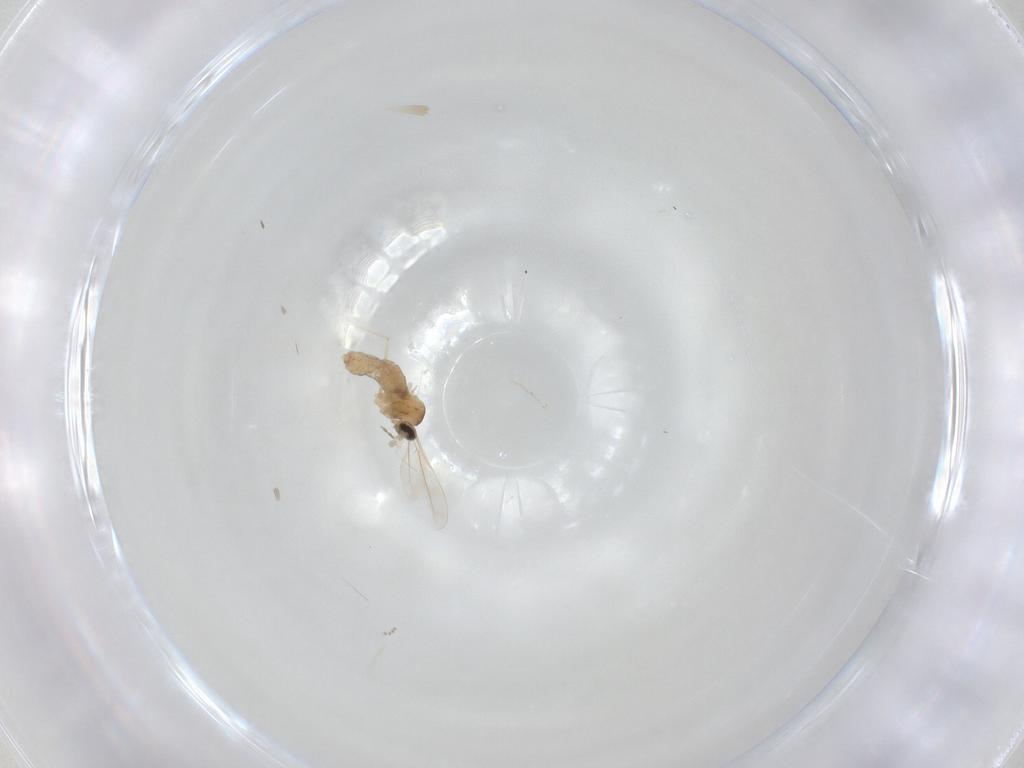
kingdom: Animalia
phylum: Arthropoda
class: Insecta
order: Diptera
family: Cecidomyiidae
